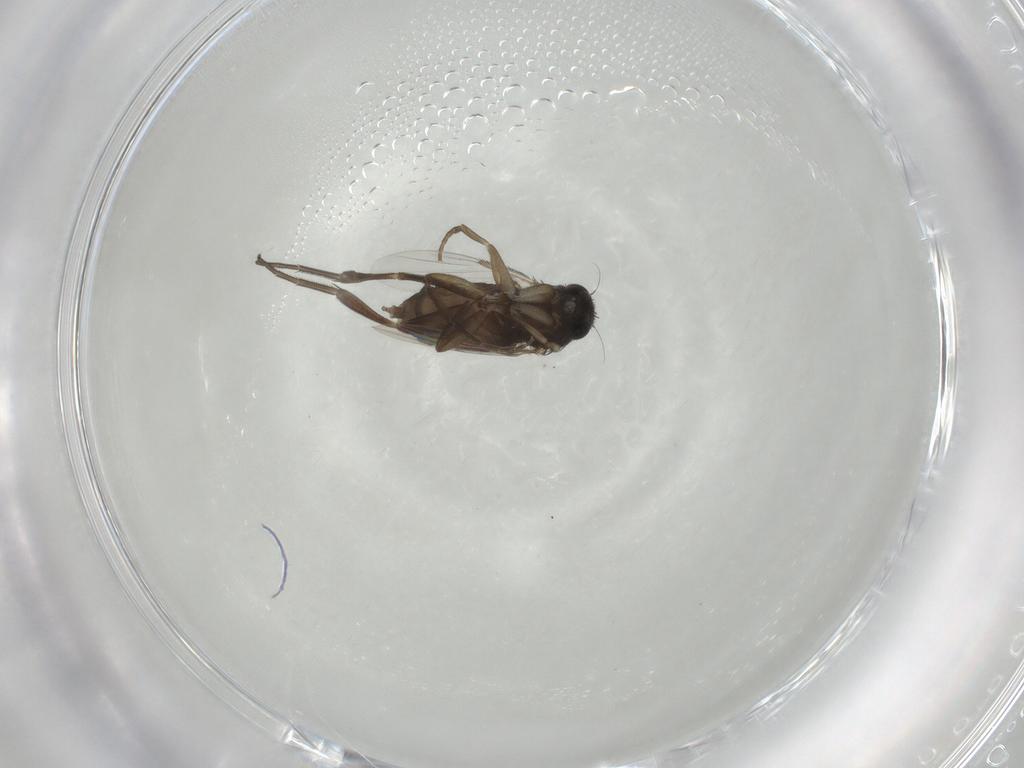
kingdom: Animalia
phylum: Arthropoda
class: Insecta
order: Diptera
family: Phoridae
